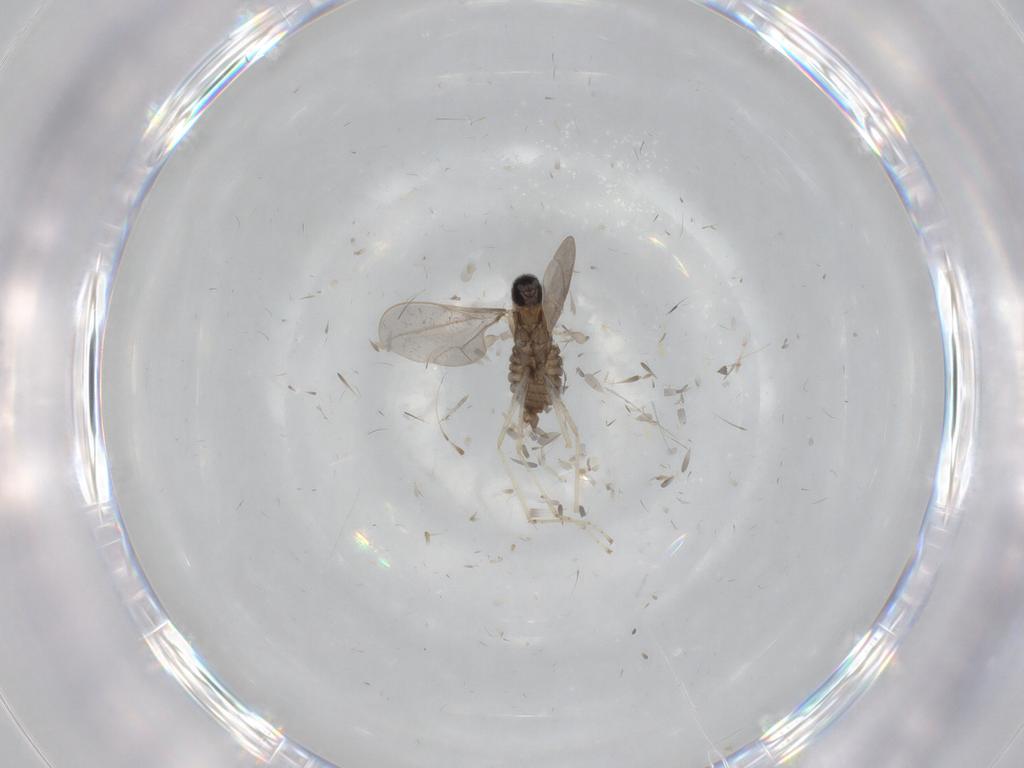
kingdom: Animalia
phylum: Arthropoda
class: Insecta
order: Diptera
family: Cecidomyiidae
